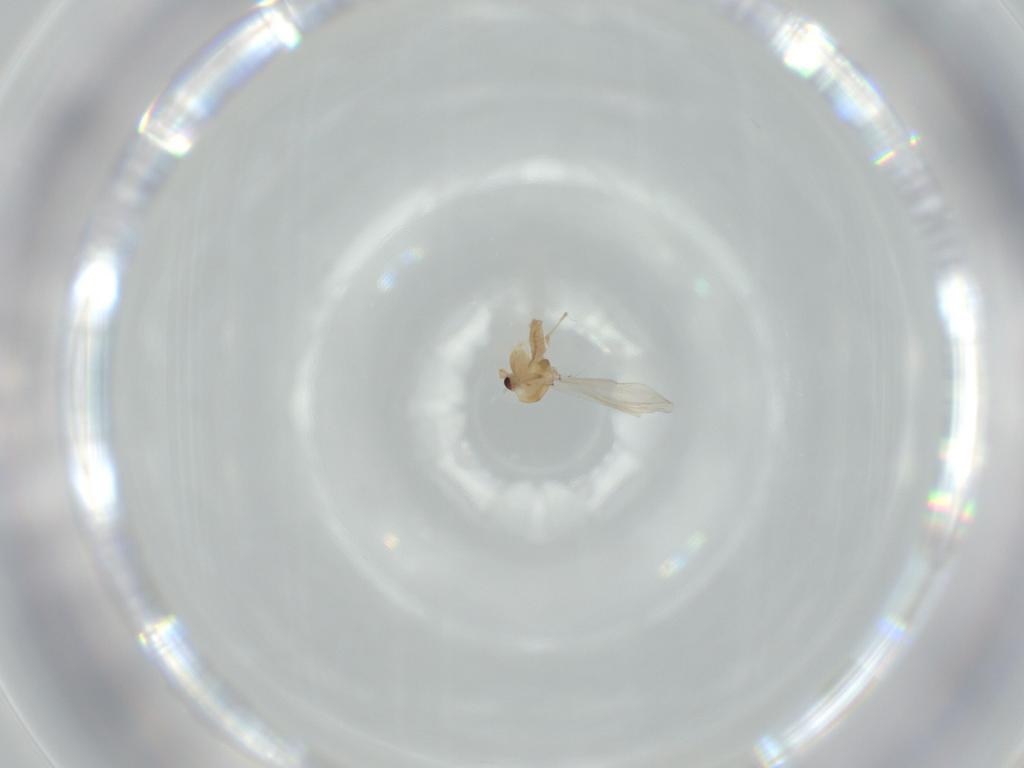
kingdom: Animalia
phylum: Arthropoda
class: Insecta
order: Diptera
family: Chironomidae
